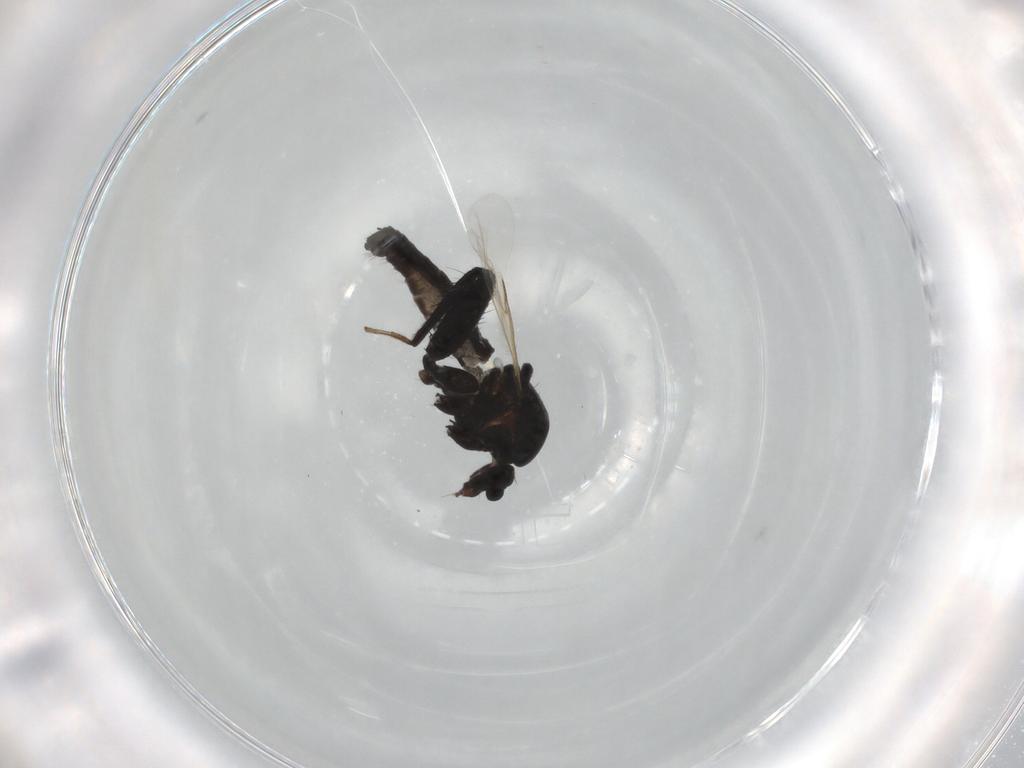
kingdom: Animalia
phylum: Arthropoda
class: Insecta
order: Diptera
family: Ceratopogonidae
